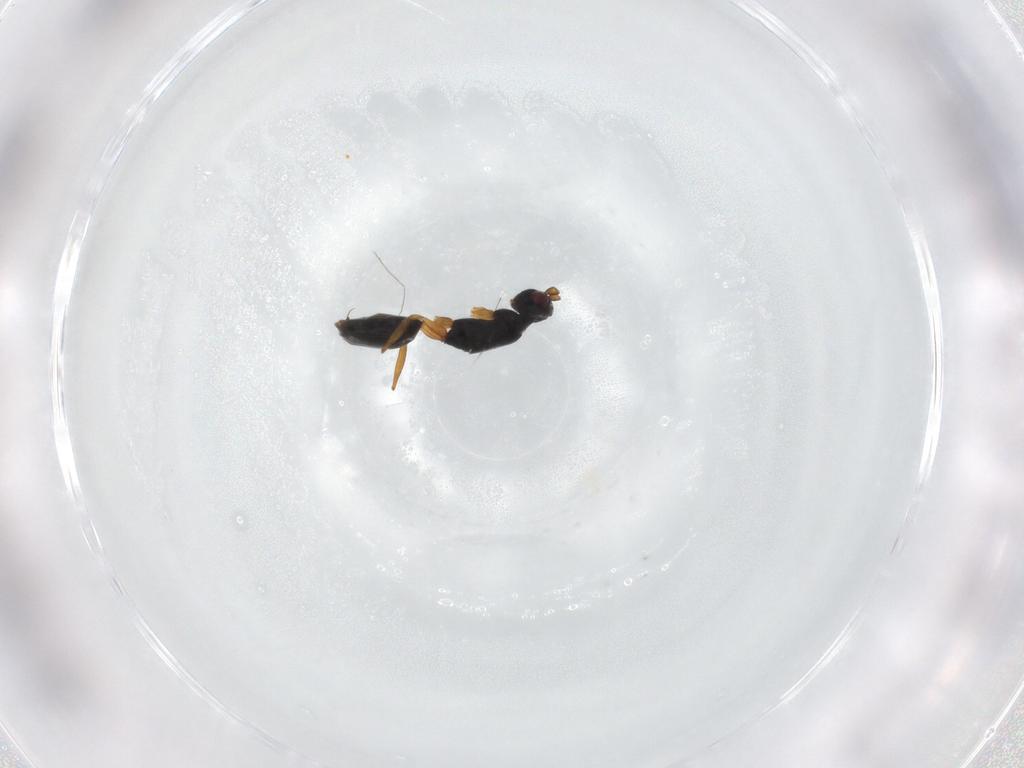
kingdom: Animalia
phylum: Arthropoda
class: Insecta
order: Hymenoptera
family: Mymaridae
